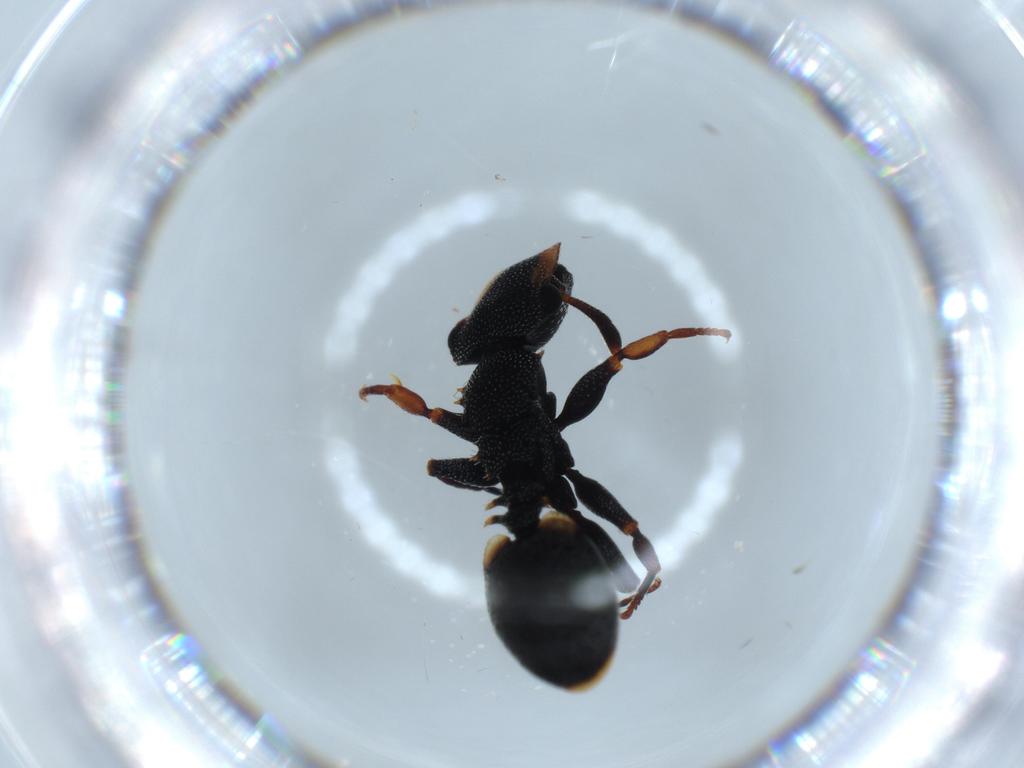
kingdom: Animalia
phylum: Arthropoda
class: Insecta
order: Hymenoptera
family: Formicidae
